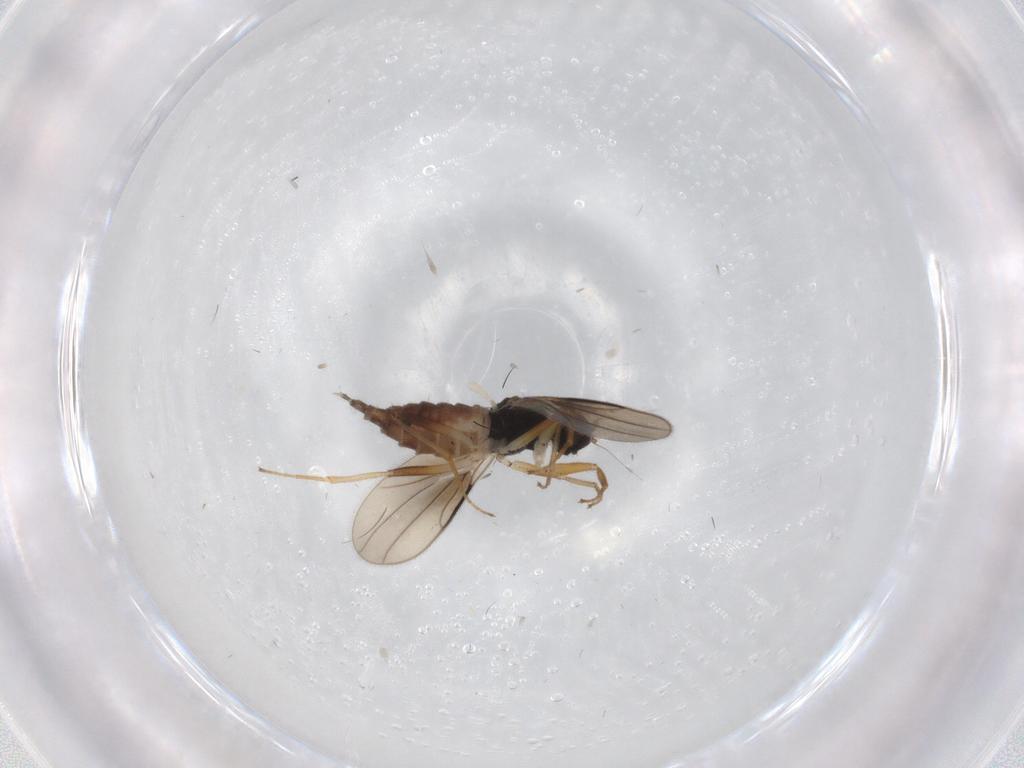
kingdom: Animalia
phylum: Arthropoda
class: Insecta
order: Diptera
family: Hybotidae
